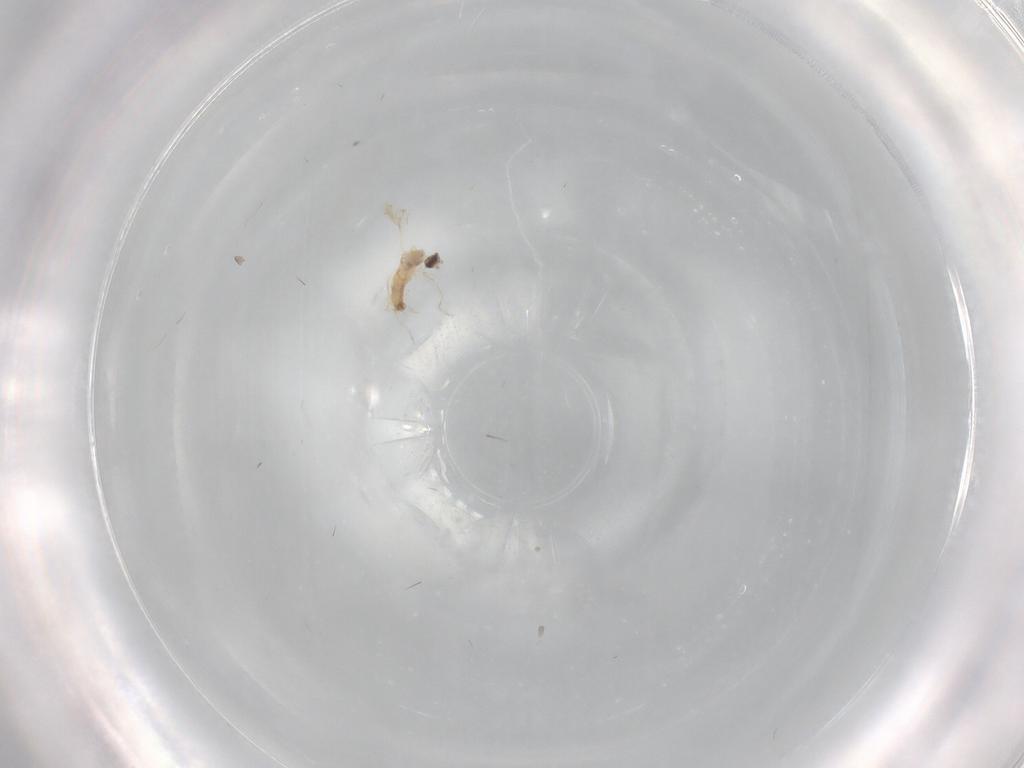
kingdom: Animalia
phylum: Arthropoda
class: Insecta
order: Diptera
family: Cecidomyiidae
